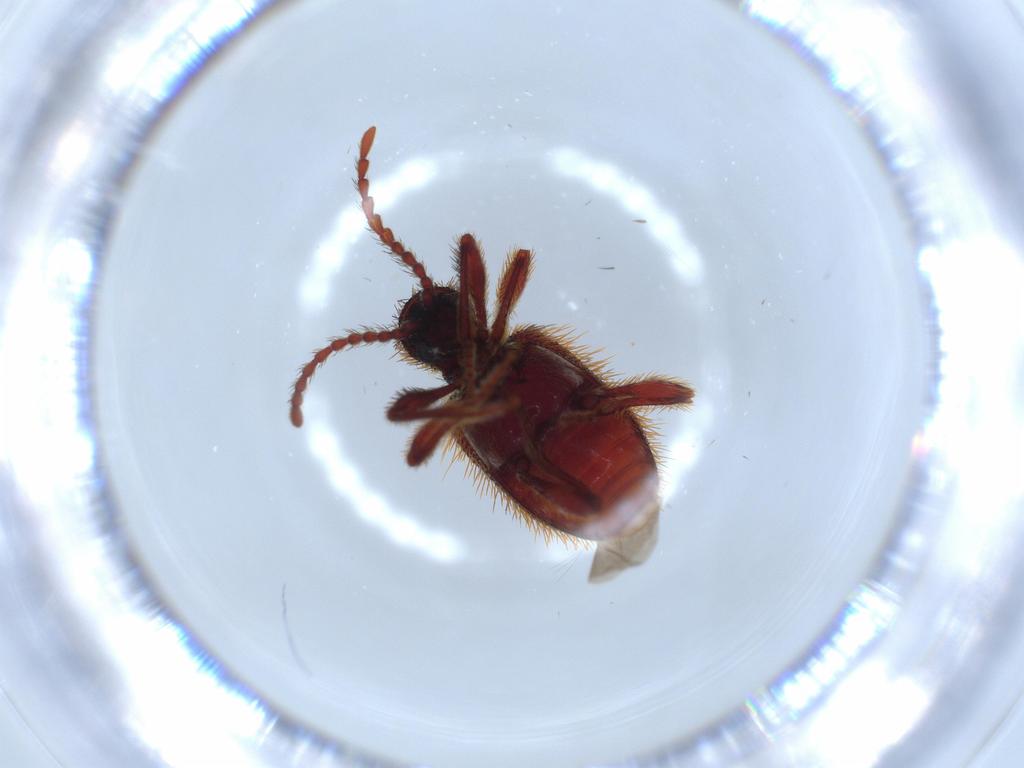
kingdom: Animalia
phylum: Arthropoda
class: Insecta
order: Coleoptera
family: Ptinidae
